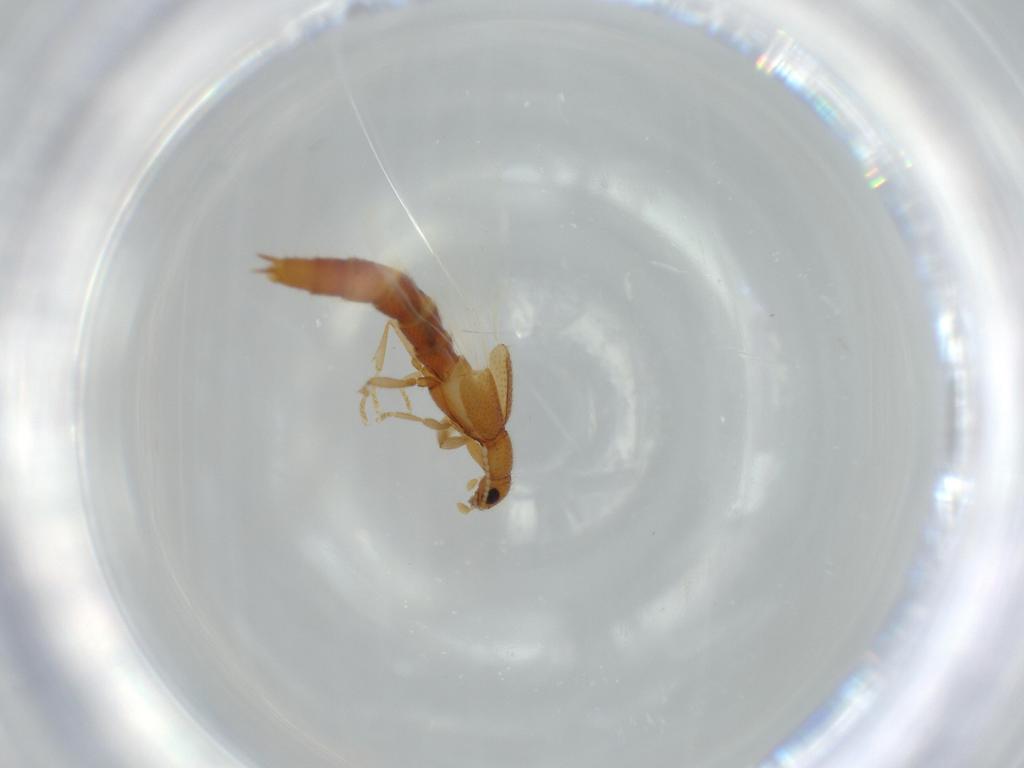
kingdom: Animalia
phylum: Arthropoda
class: Insecta
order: Coleoptera
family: Staphylinidae
